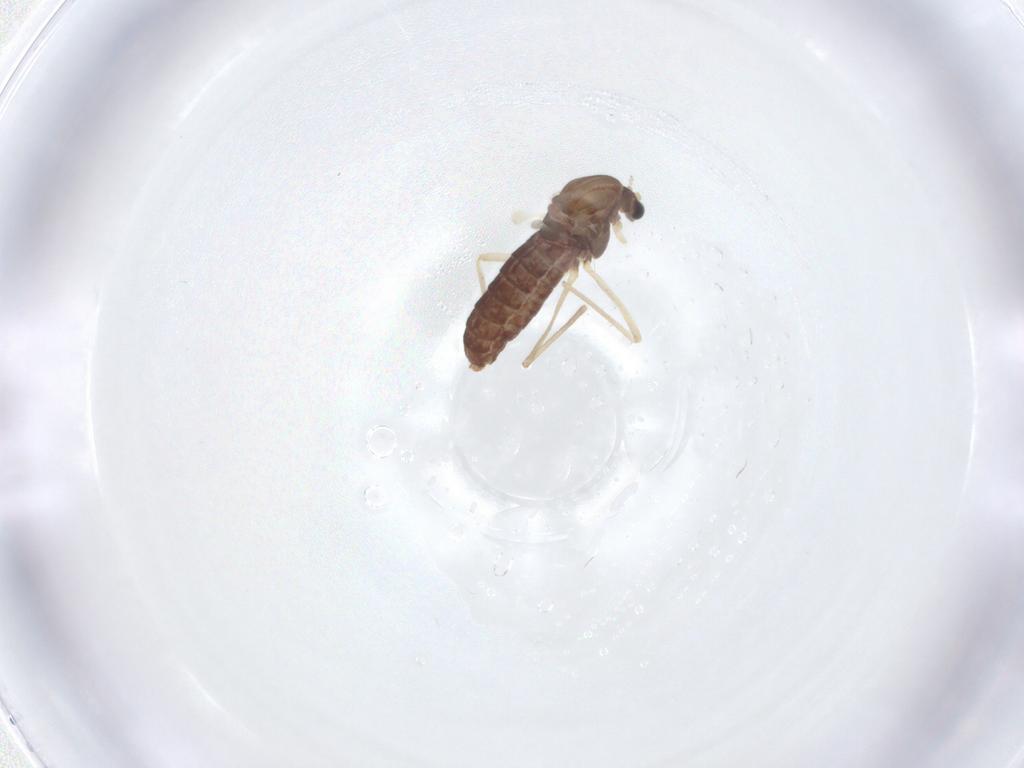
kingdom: Animalia
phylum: Arthropoda
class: Insecta
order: Diptera
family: Chironomidae
